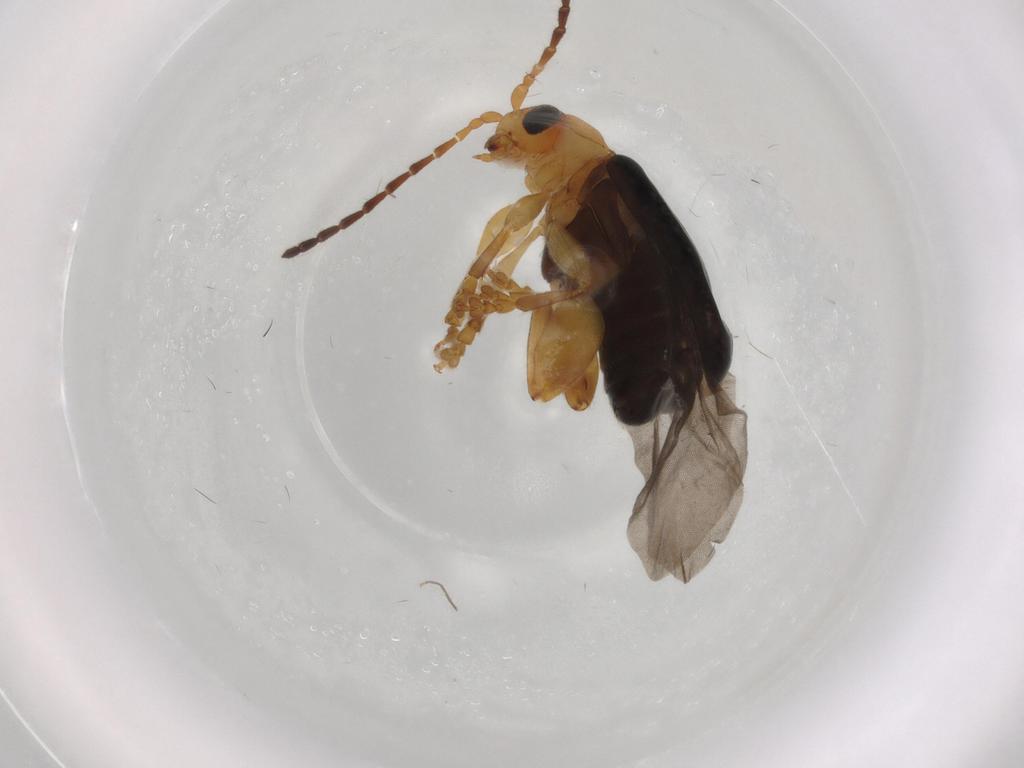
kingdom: Animalia
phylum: Arthropoda
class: Insecta
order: Coleoptera
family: Chrysomelidae
